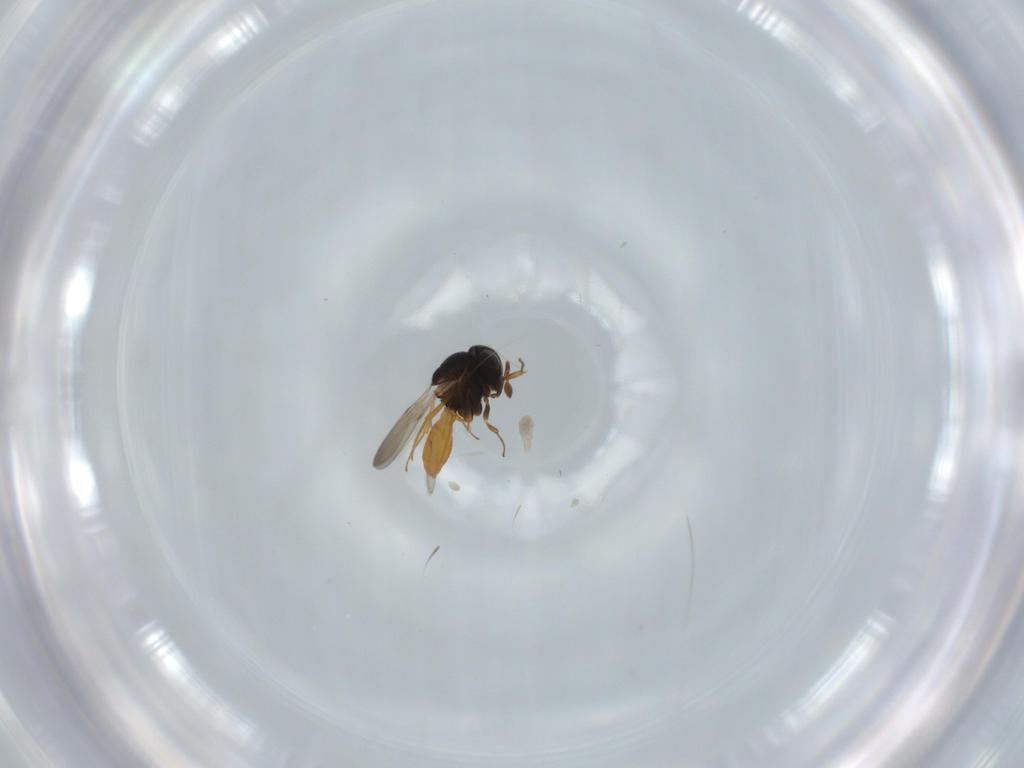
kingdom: Animalia
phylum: Arthropoda
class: Insecta
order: Hymenoptera
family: Scelionidae
